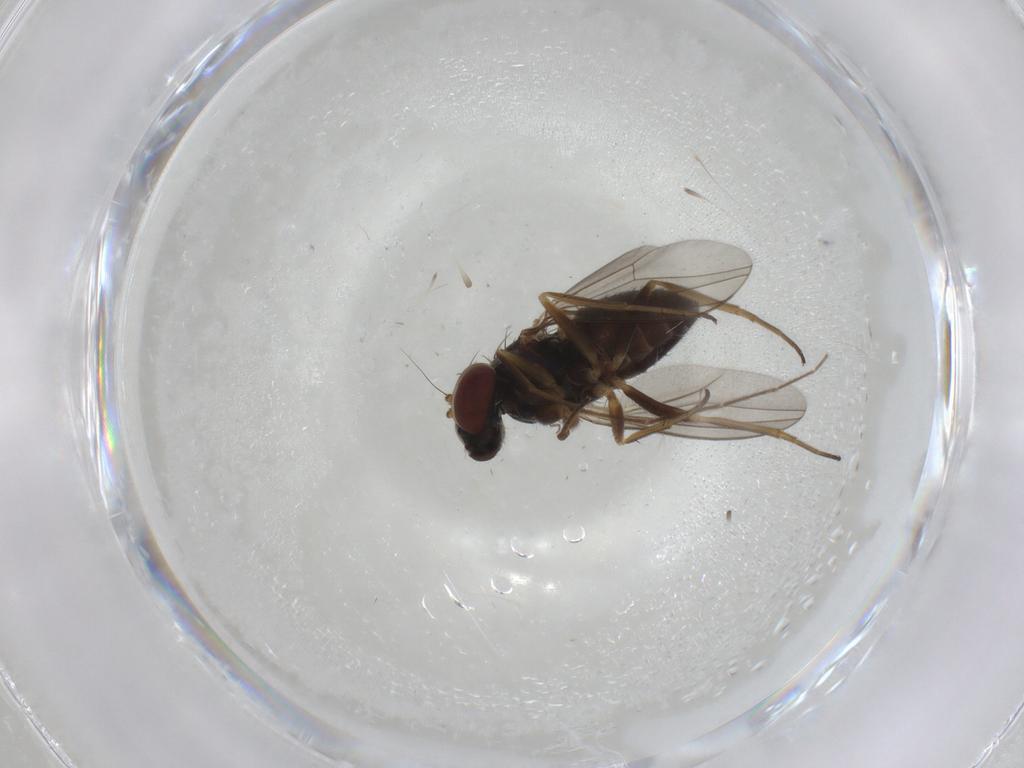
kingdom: Animalia
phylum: Arthropoda
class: Insecta
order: Diptera
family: Dolichopodidae
